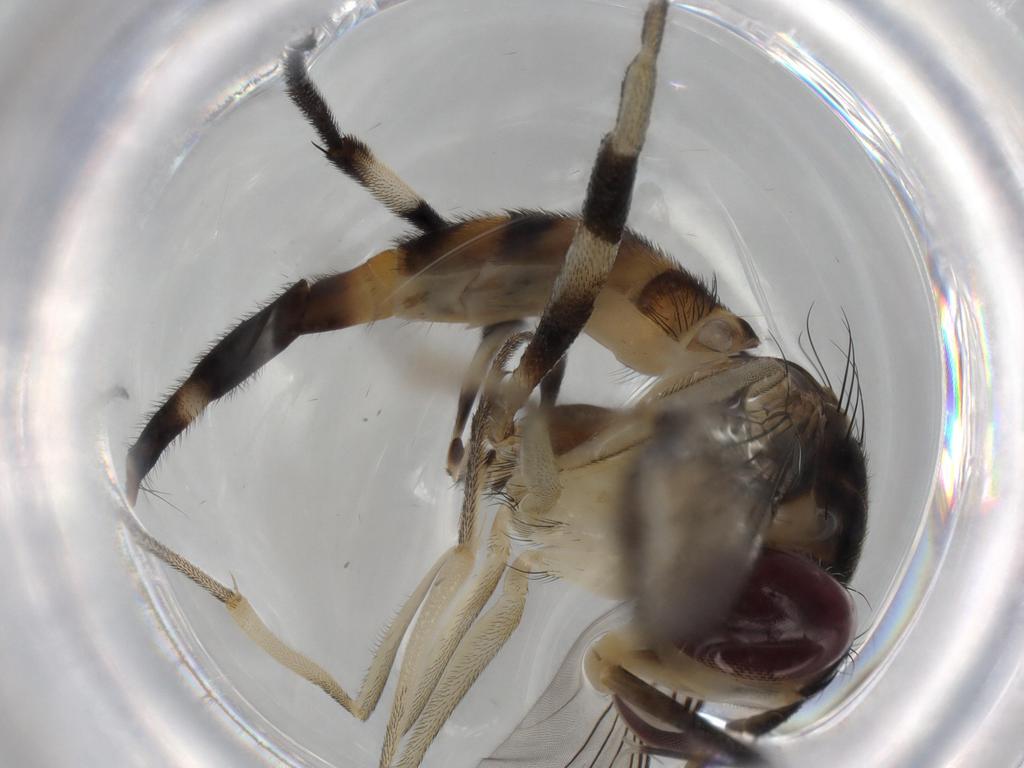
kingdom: Animalia
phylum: Arthropoda
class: Insecta
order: Diptera
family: Conopidae
